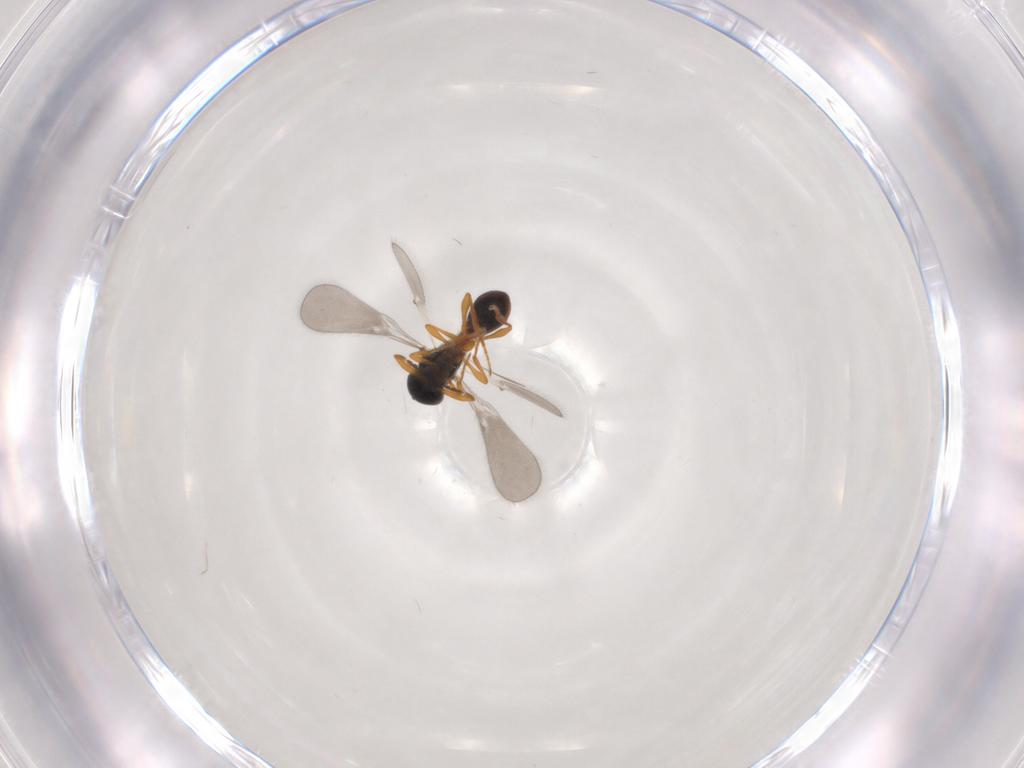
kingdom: Animalia
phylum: Arthropoda
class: Insecta
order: Hymenoptera
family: Platygastridae
